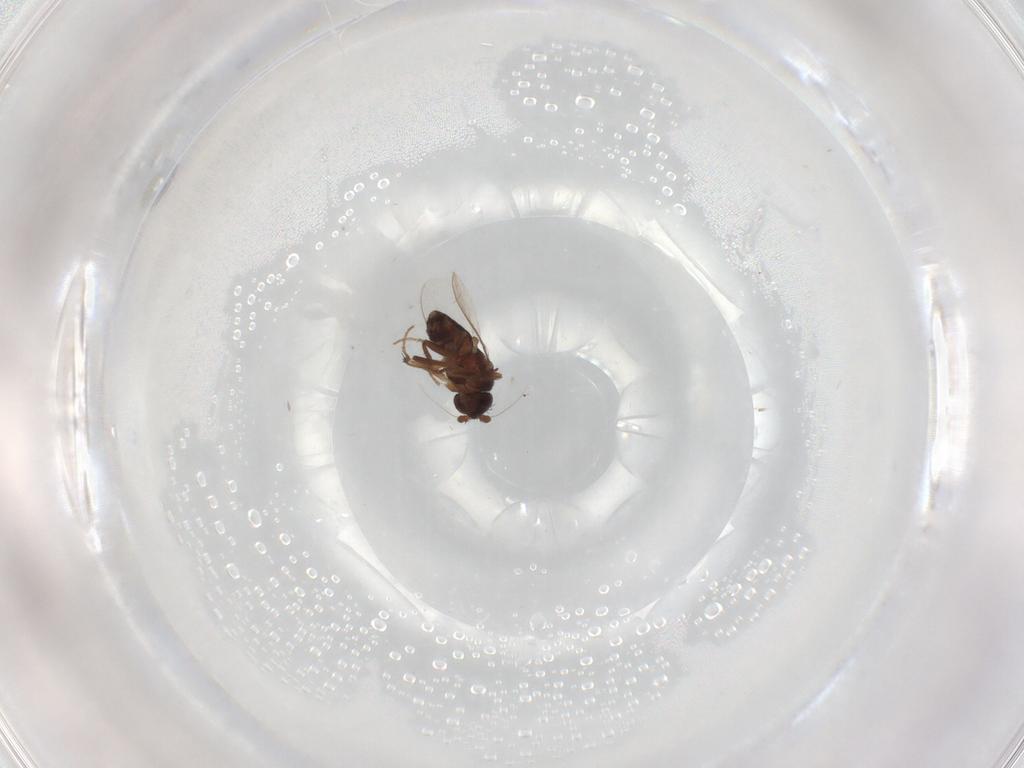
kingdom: Animalia
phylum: Arthropoda
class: Insecta
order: Diptera
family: Sphaeroceridae
